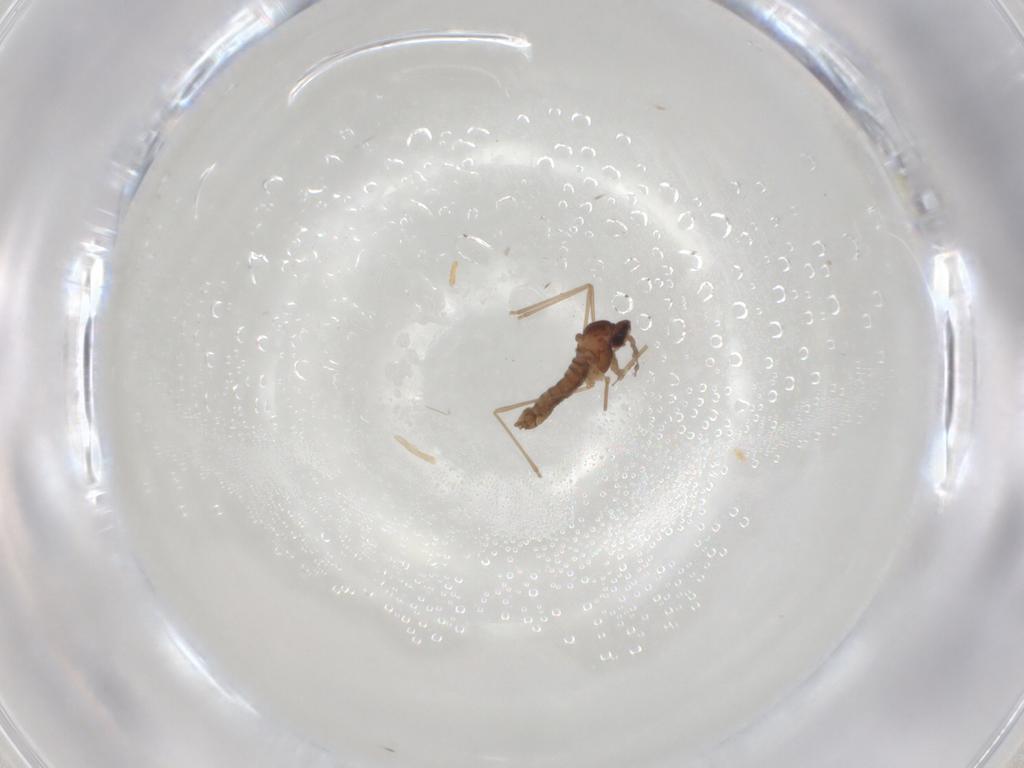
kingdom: Animalia
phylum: Arthropoda
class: Insecta
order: Diptera
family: Cecidomyiidae
